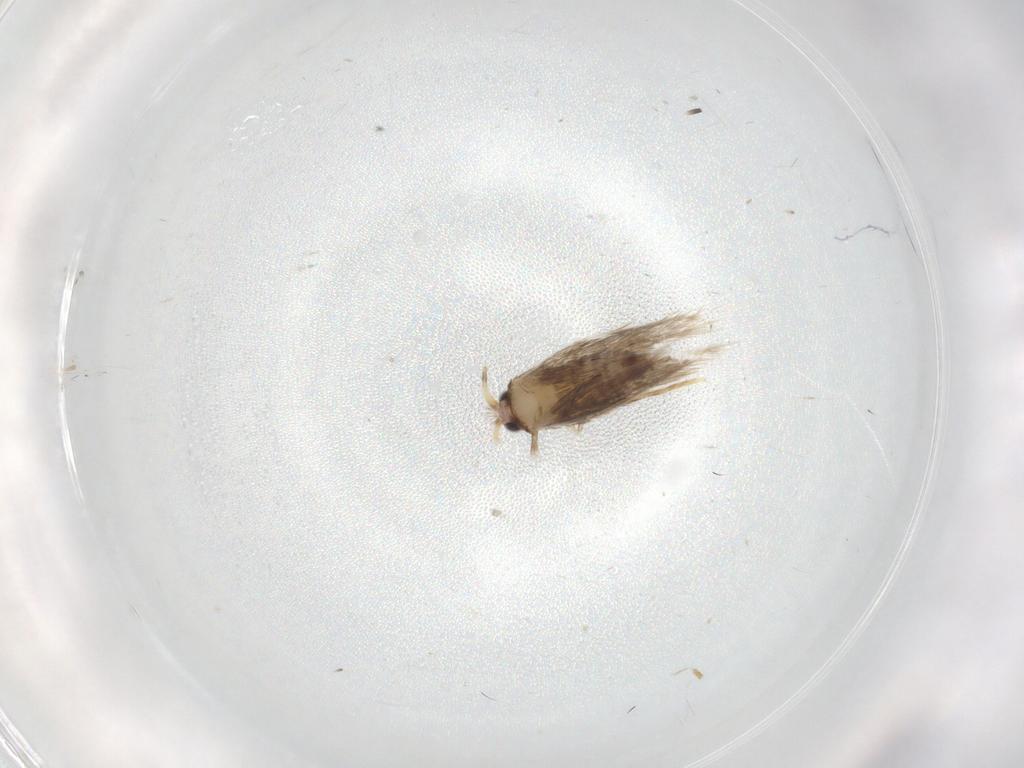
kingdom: Animalia
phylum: Arthropoda
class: Insecta
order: Lepidoptera
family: Nepticulidae
